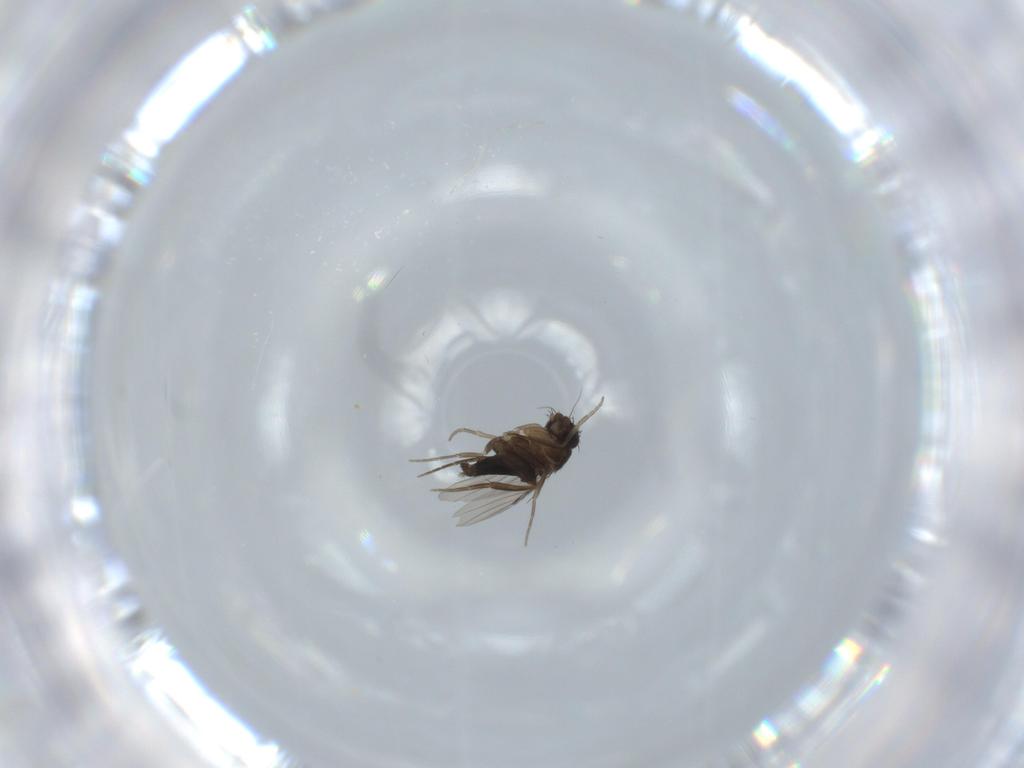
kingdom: Animalia
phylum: Arthropoda
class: Insecta
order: Diptera
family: Phoridae
